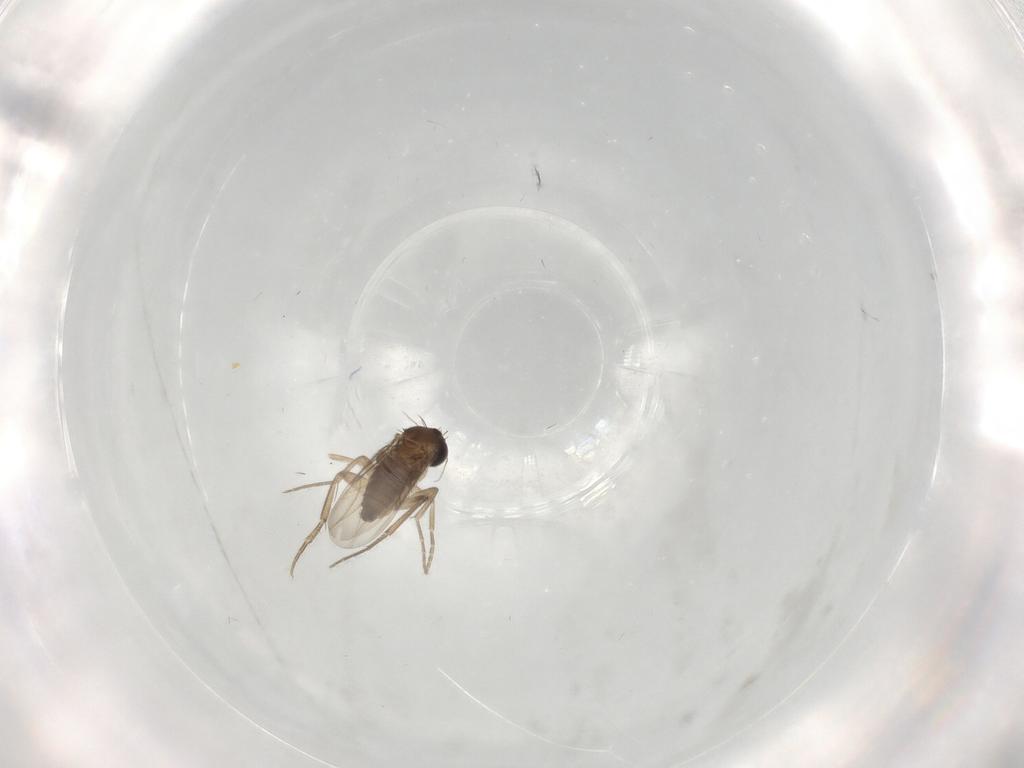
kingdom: Animalia
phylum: Arthropoda
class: Insecta
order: Diptera
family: Phoridae
